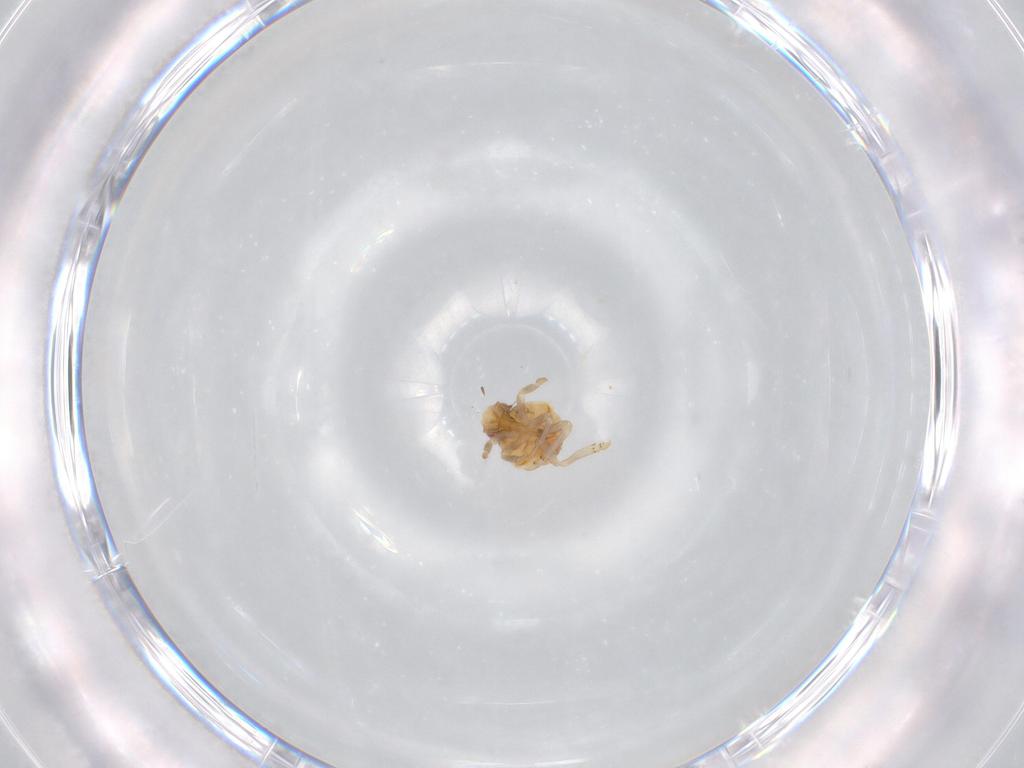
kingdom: Animalia
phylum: Arthropoda
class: Insecta
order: Hemiptera
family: Flatidae
